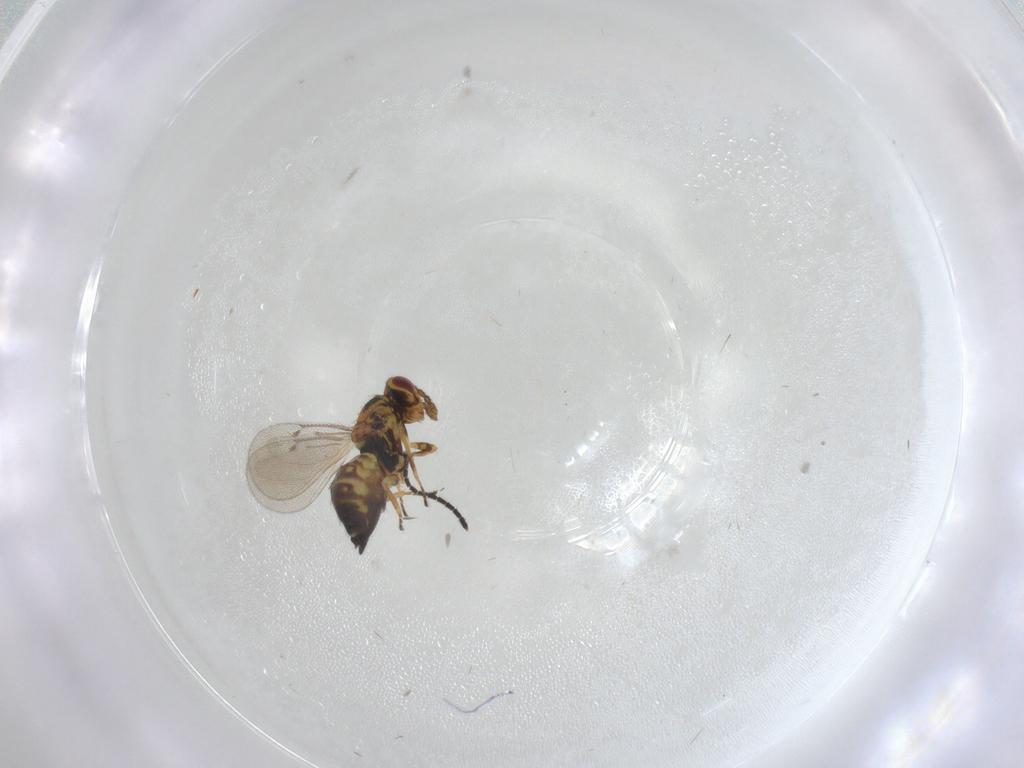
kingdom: Animalia
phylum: Arthropoda
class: Insecta
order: Hymenoptera
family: Eulophidae
